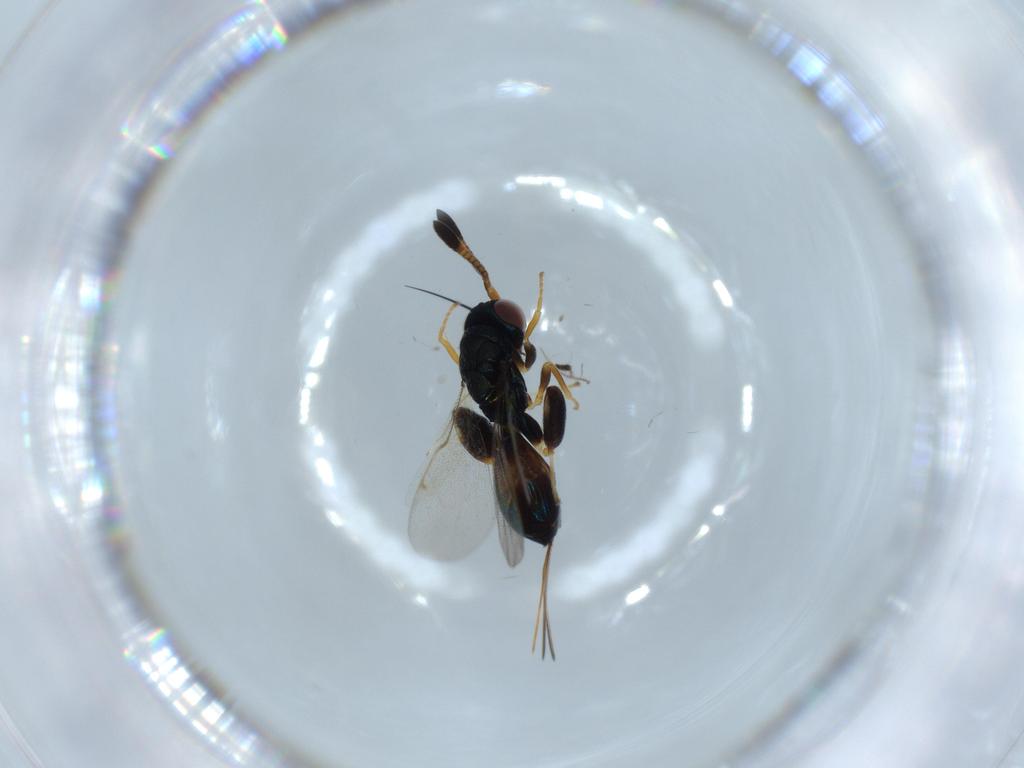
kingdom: Animalia
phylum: Arthropoda
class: Insecta
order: Hymenoptera
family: Torymidae
